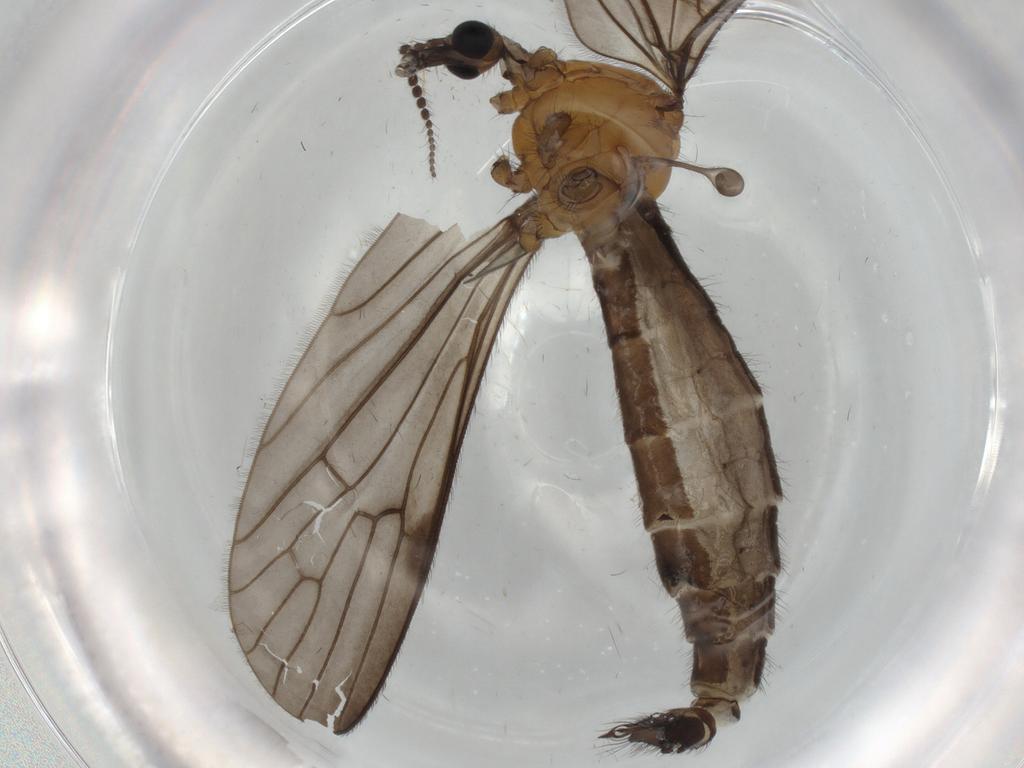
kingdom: Animalia
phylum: Arthropoda
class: Insecta
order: Diptera
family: Limoniidae
